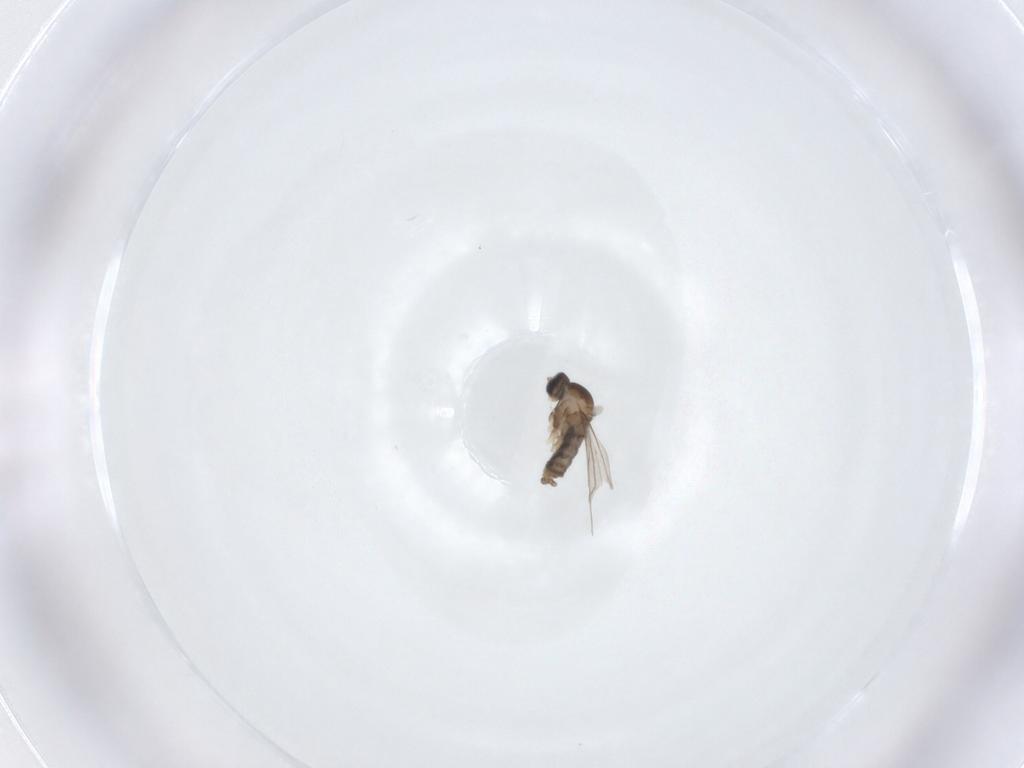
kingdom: Animalia
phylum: Arthropoda
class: Insecta
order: Diptera
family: Cecidomyiidae
